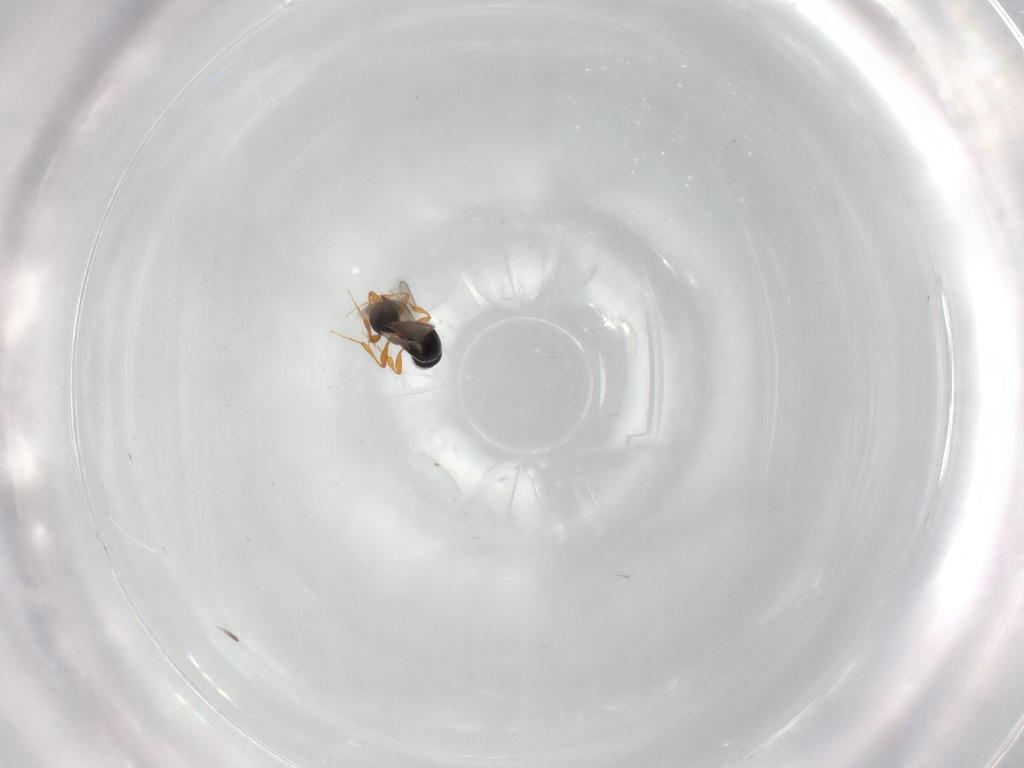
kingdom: Animalia
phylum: Arthropoda
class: Insecta
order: Hymenoptera
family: Platygastridae
